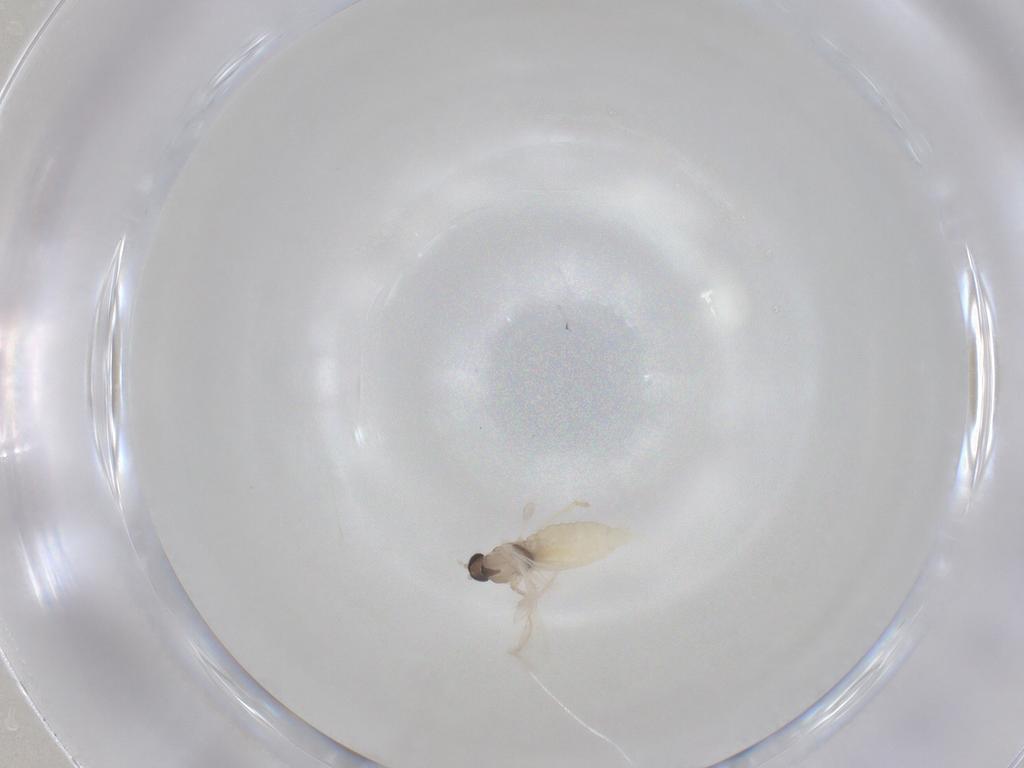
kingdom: Animalia
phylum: Arthropoda
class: Insecta
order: Diptera
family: Cecidomyiidae
